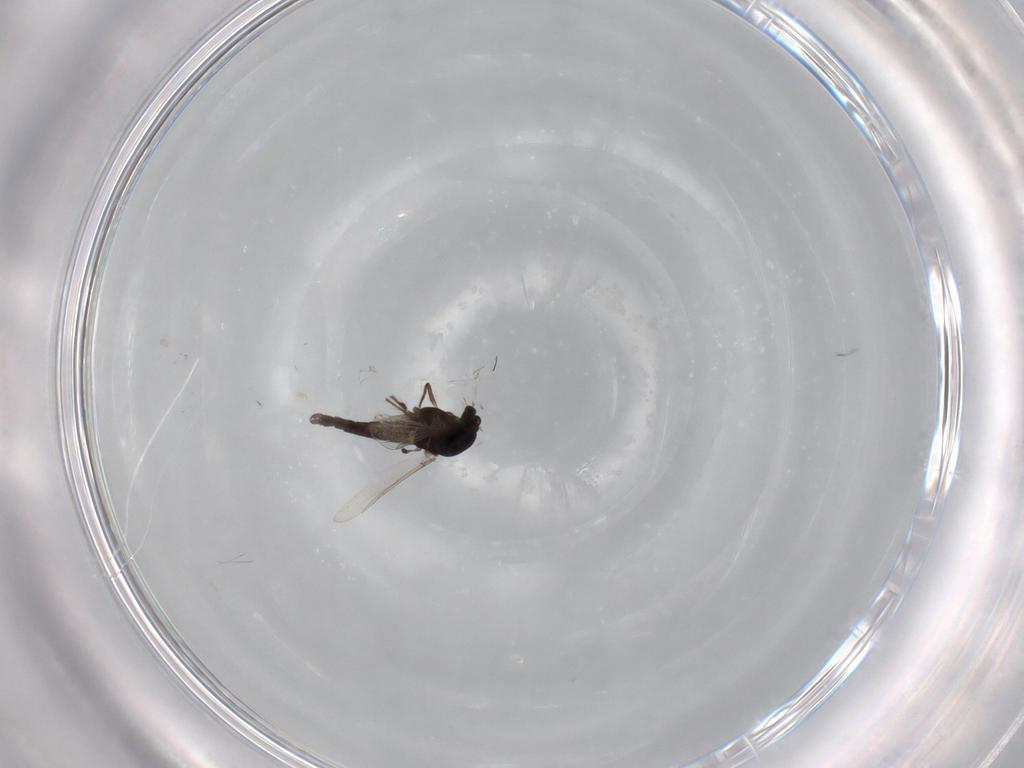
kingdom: Animalia
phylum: Arthropoda
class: Insecta
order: Diptera
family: Chironomidae
